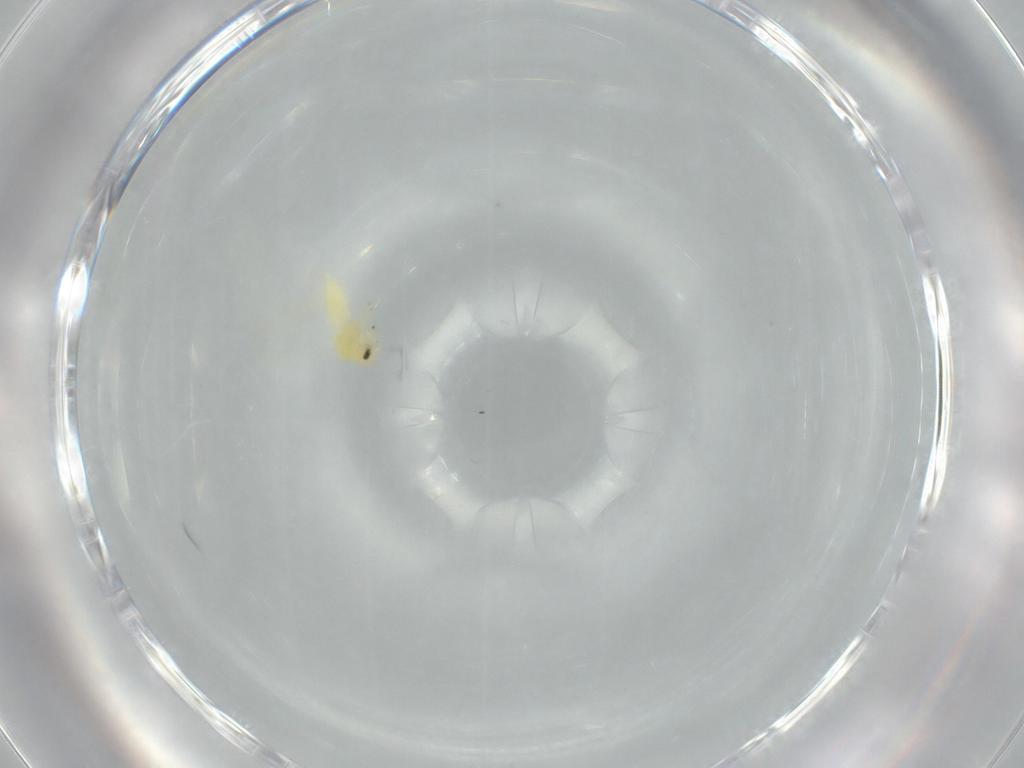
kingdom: Animalia
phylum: Arthropoda
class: Insecta
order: Hemiptera
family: Aleyrodidae
